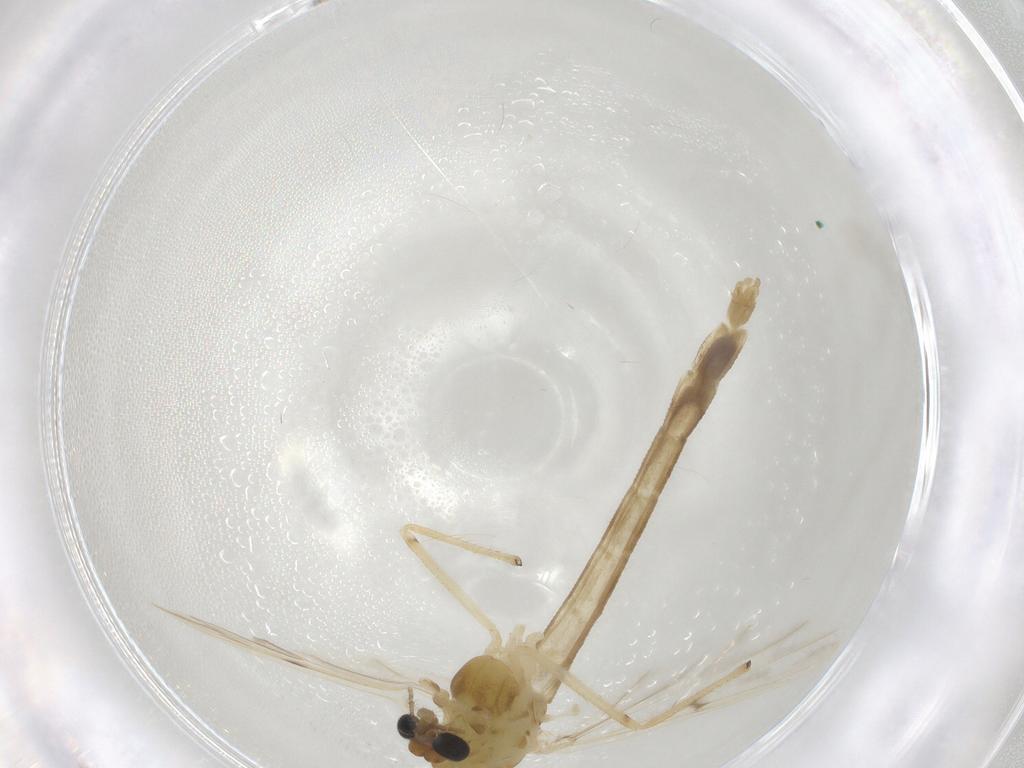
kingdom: Animalia
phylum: Arthropoda
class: Insecta
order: Diptera
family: Chironomidae
